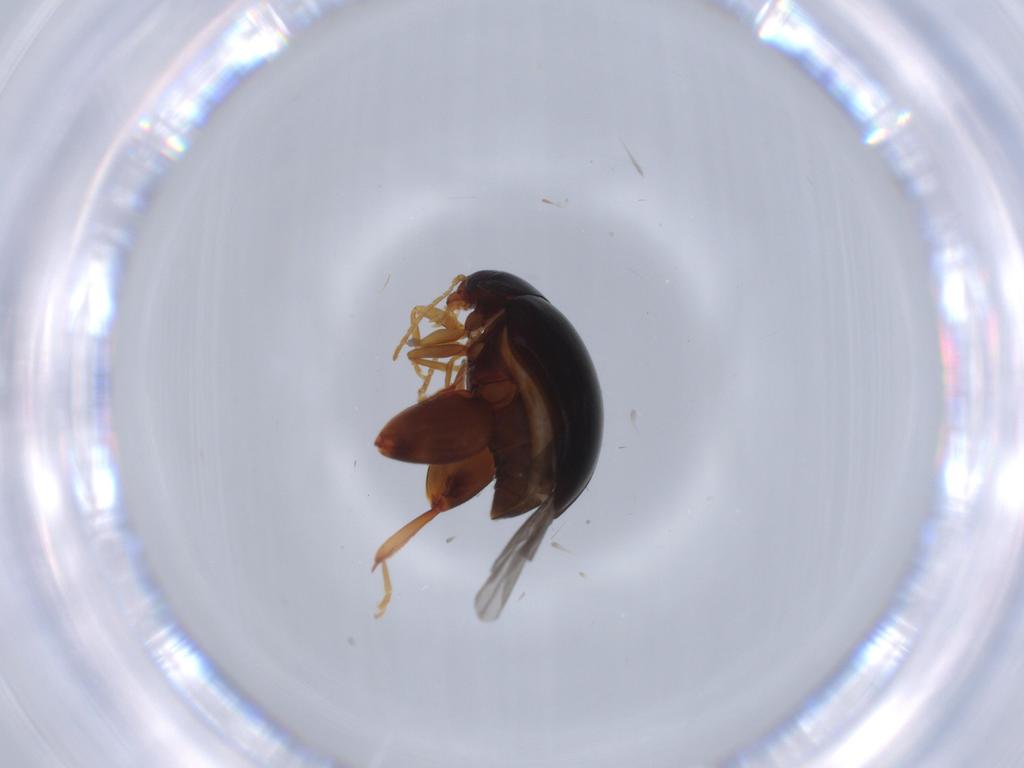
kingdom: Animalia
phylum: Arthropoda
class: Insecta
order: Coleoptera
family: Chrysomelidae
